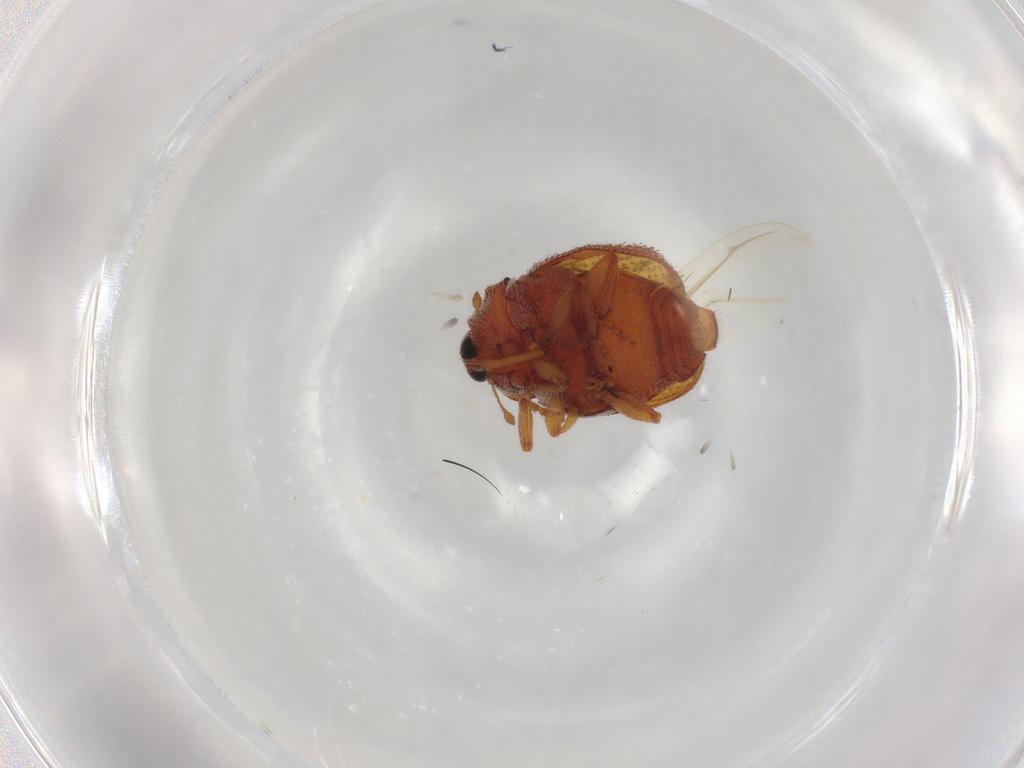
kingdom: Animalia
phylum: Arthropoda
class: Insecta
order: Coleoptera
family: Curculionidae
